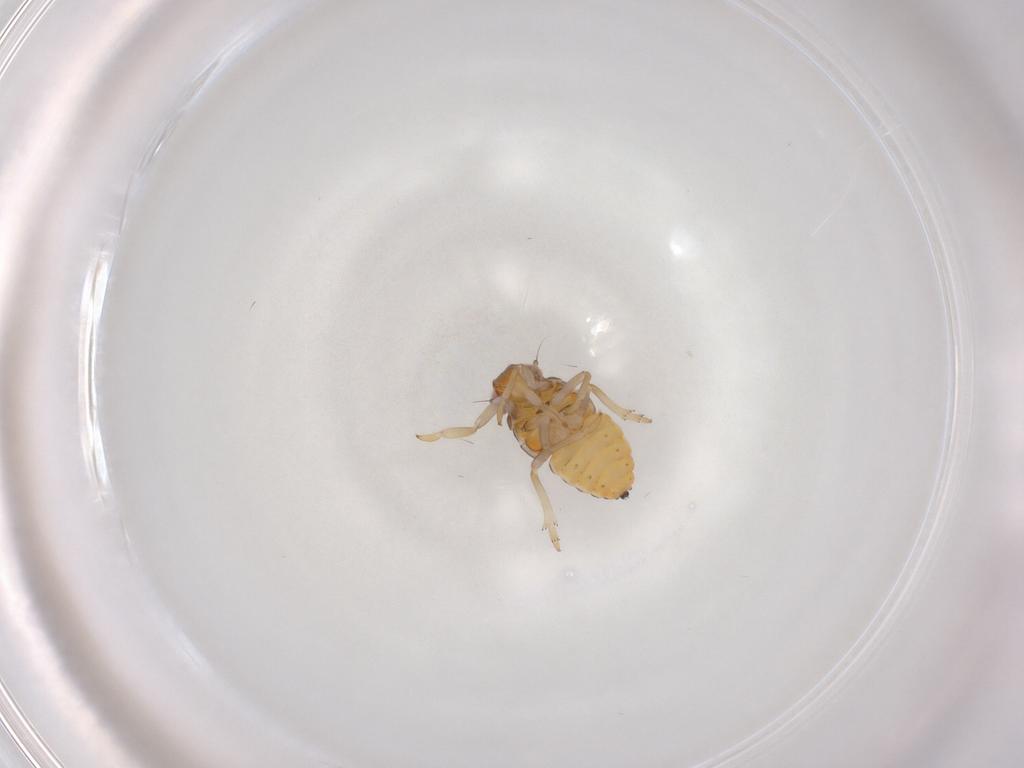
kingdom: Animalia
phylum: Arthropoda
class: Insecta
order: Hemiptera
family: Issidae
